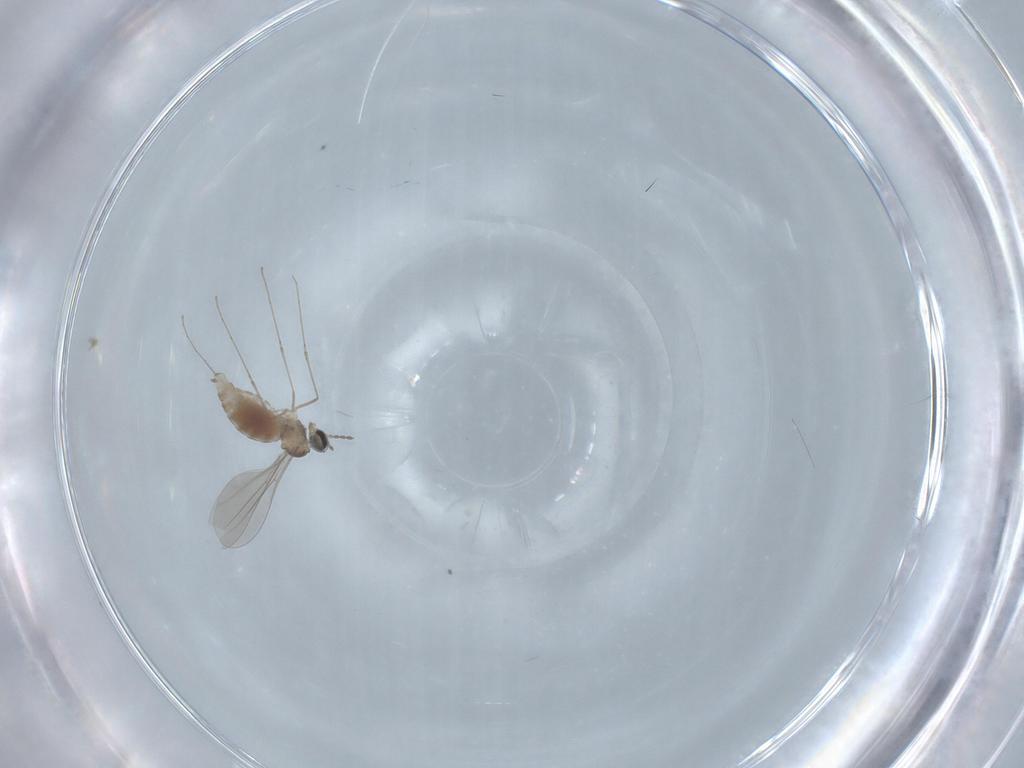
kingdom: Animalia
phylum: Arthropoda
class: Insecta
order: Diptera
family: Cecidomyiidae
